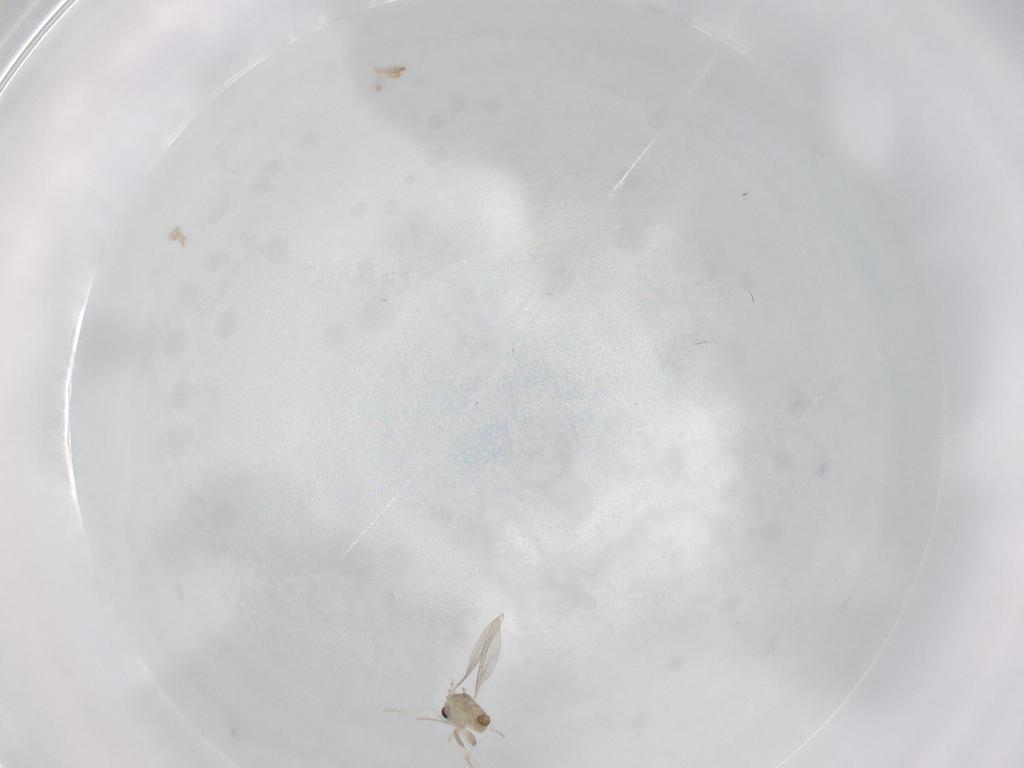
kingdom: Animalia
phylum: Arthropoda
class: Insecta
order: Diptera
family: Cecidomyiidae
